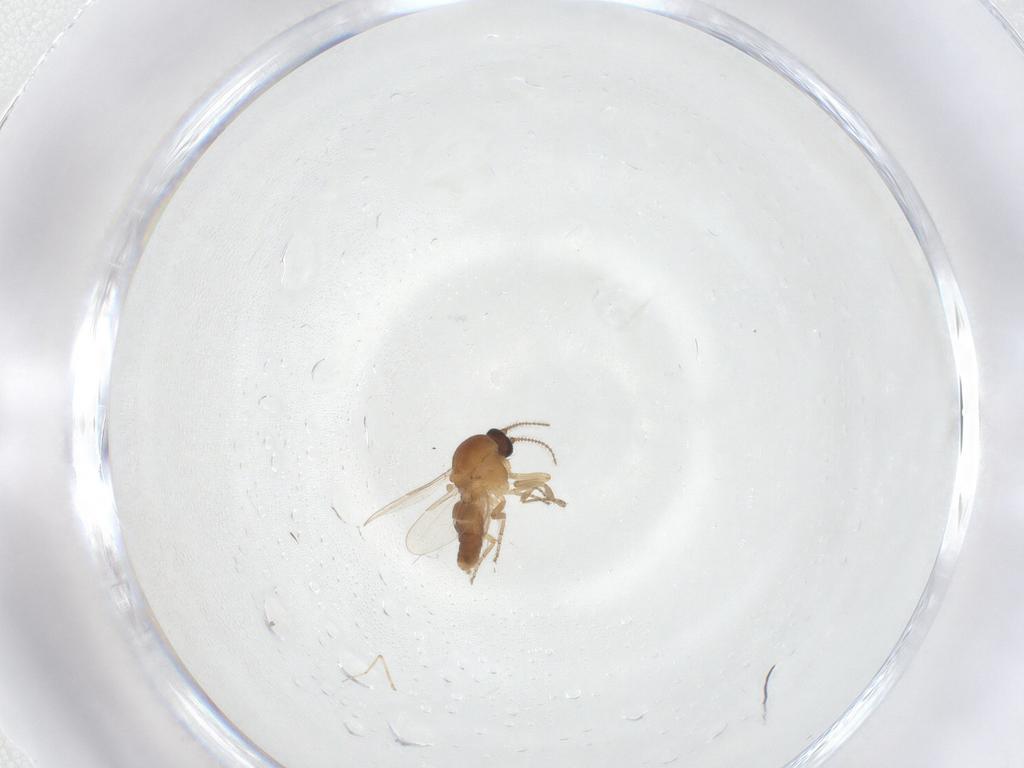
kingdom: Animalia
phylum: Arthropoda
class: Insecta
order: Diptera
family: Ceratopogonidae
